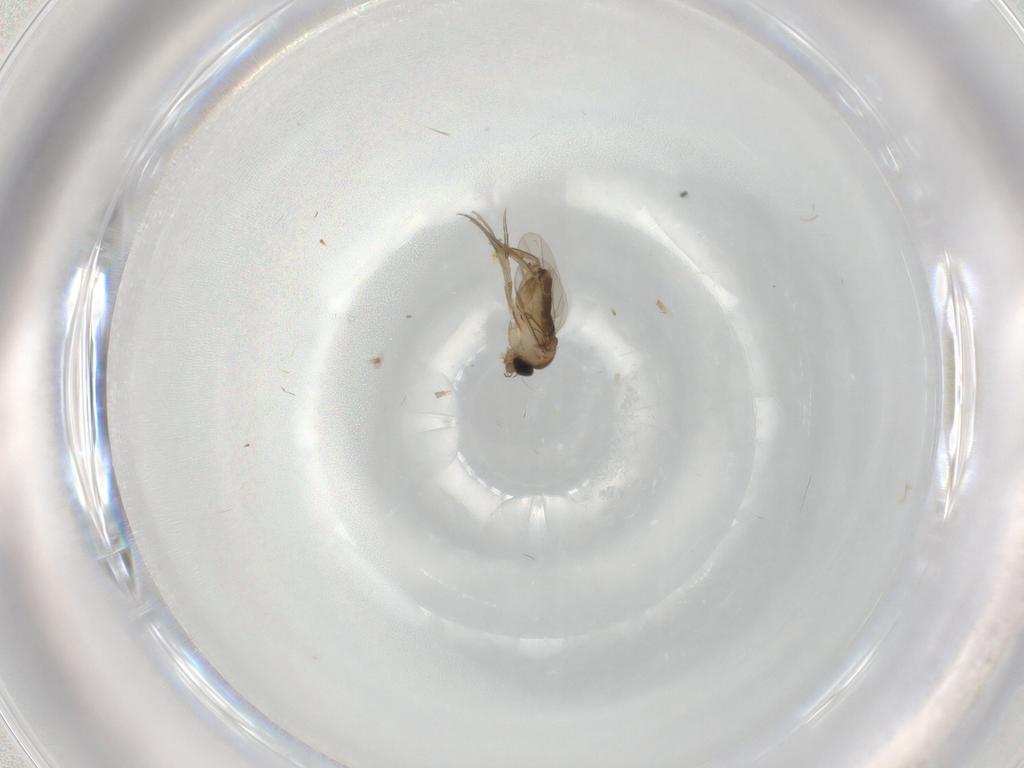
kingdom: Animalia
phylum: Arthropoda
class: Insecta
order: Diptera
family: Phoridae
